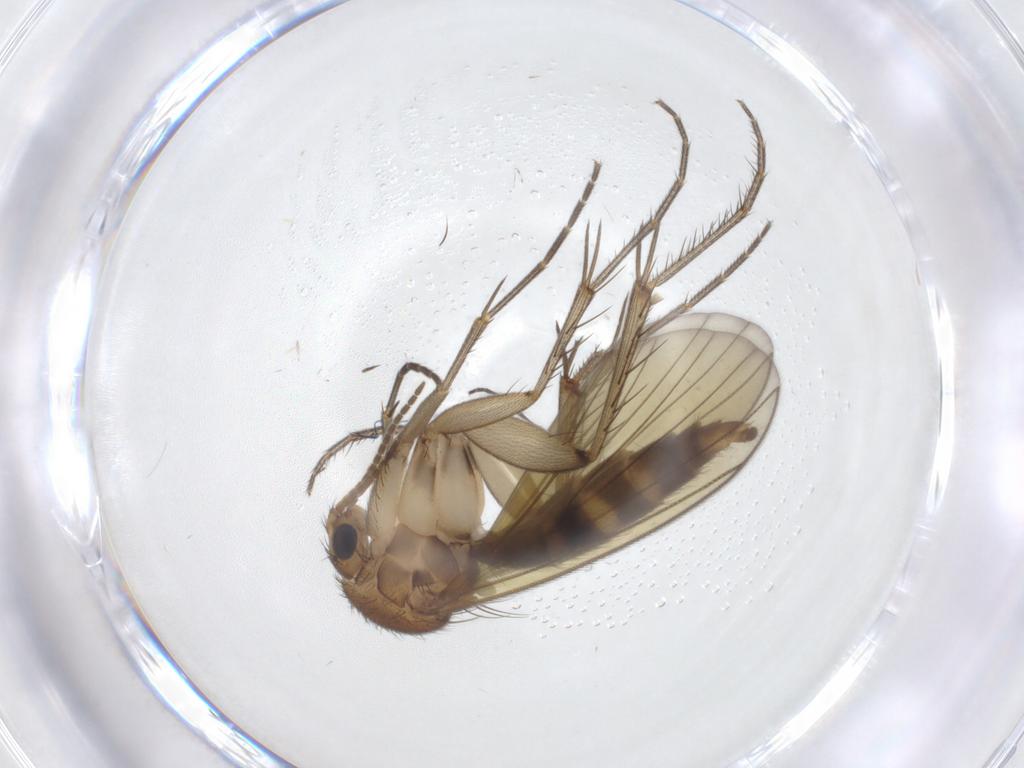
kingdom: Animalia
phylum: Arthropoda
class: Insecta
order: Diptera
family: Mycetophilidae
